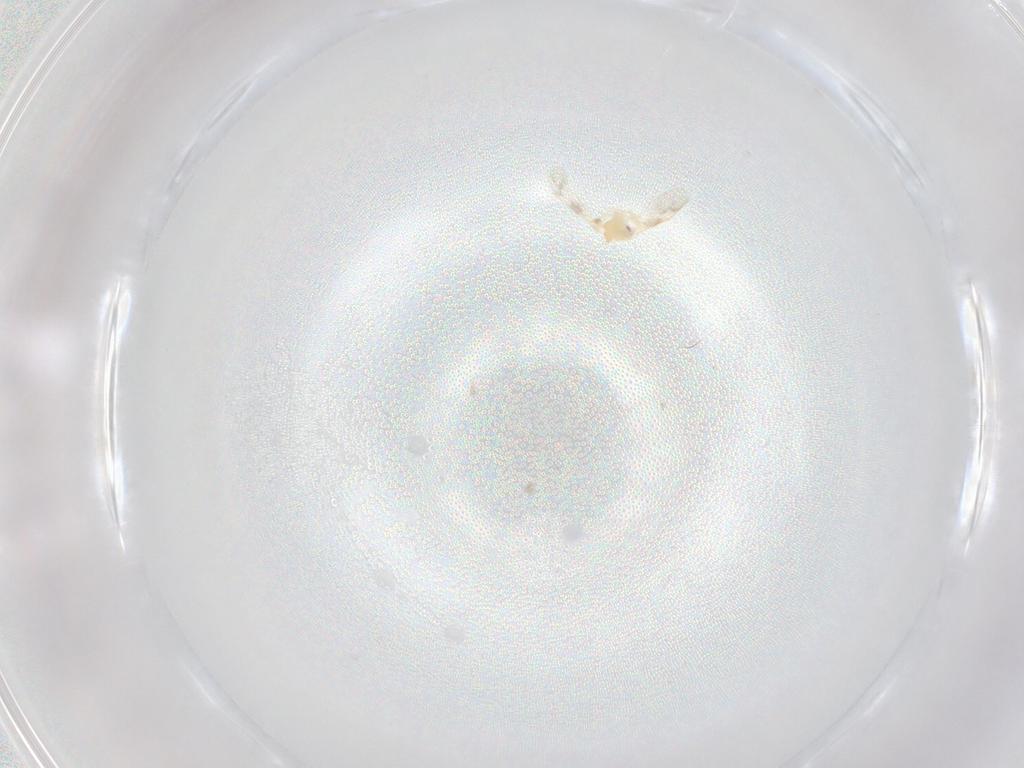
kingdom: Animalia
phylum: Arthropoda
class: Insecta
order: Hemiptera
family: Aleyrodidae
